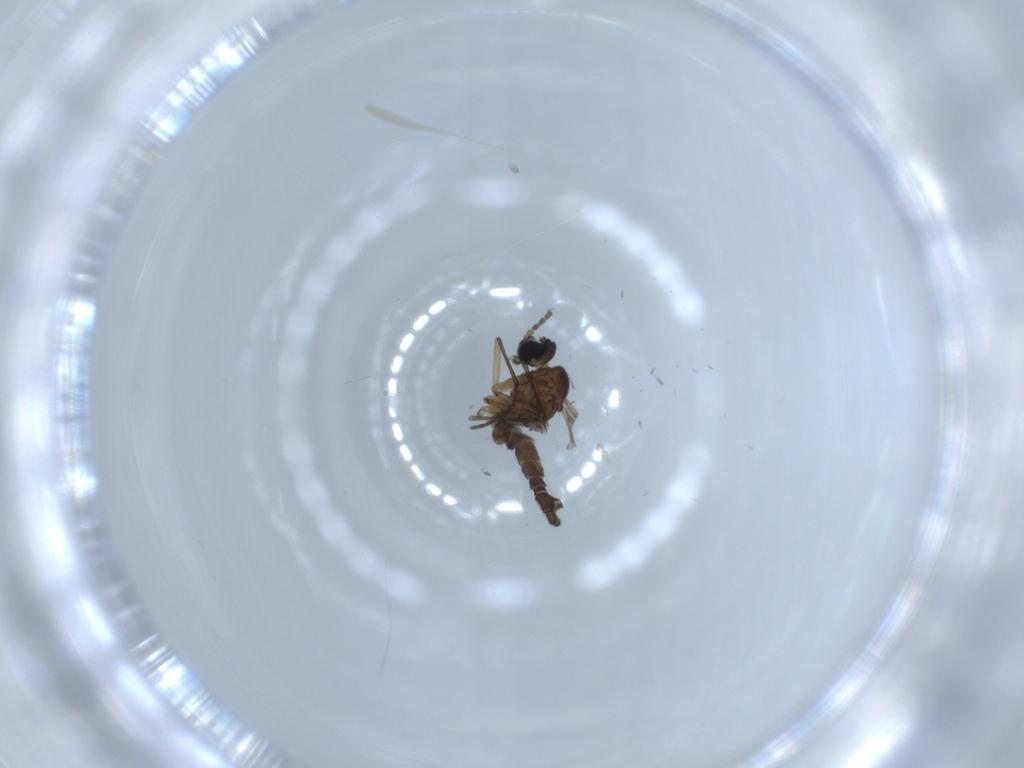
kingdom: Animalia
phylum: Arthropoda
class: Insecta
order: Diptera
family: Sciaridae
